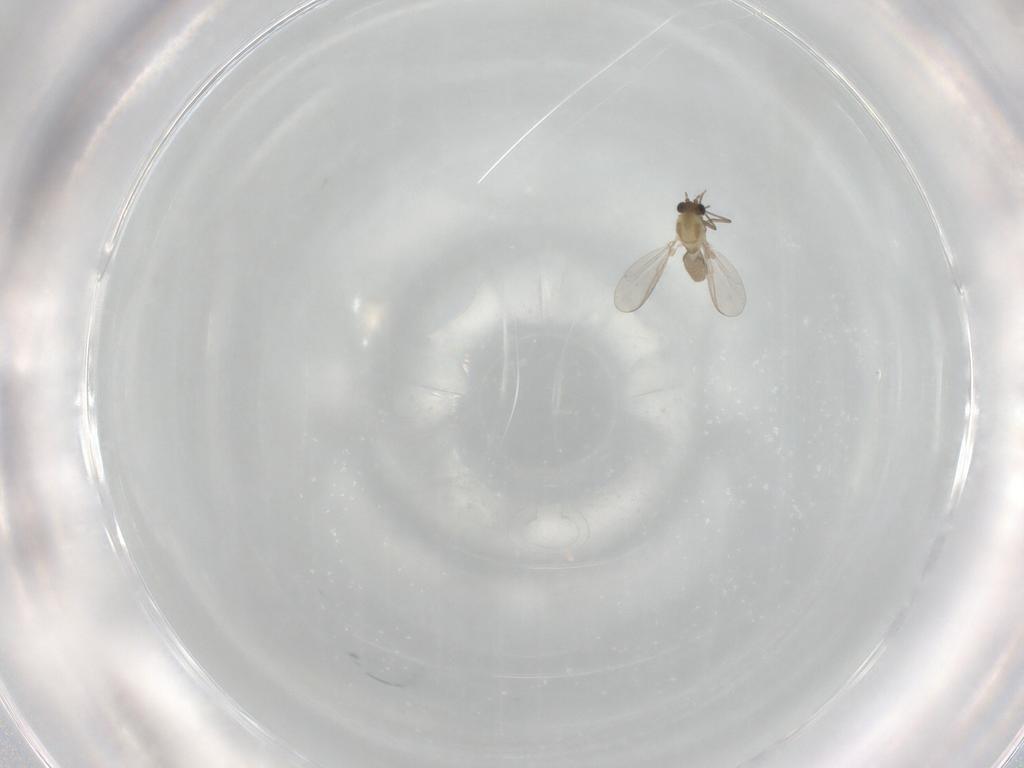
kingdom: Animalia
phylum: Arthropoda
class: Insecta
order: Diptera
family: Chironomidae
